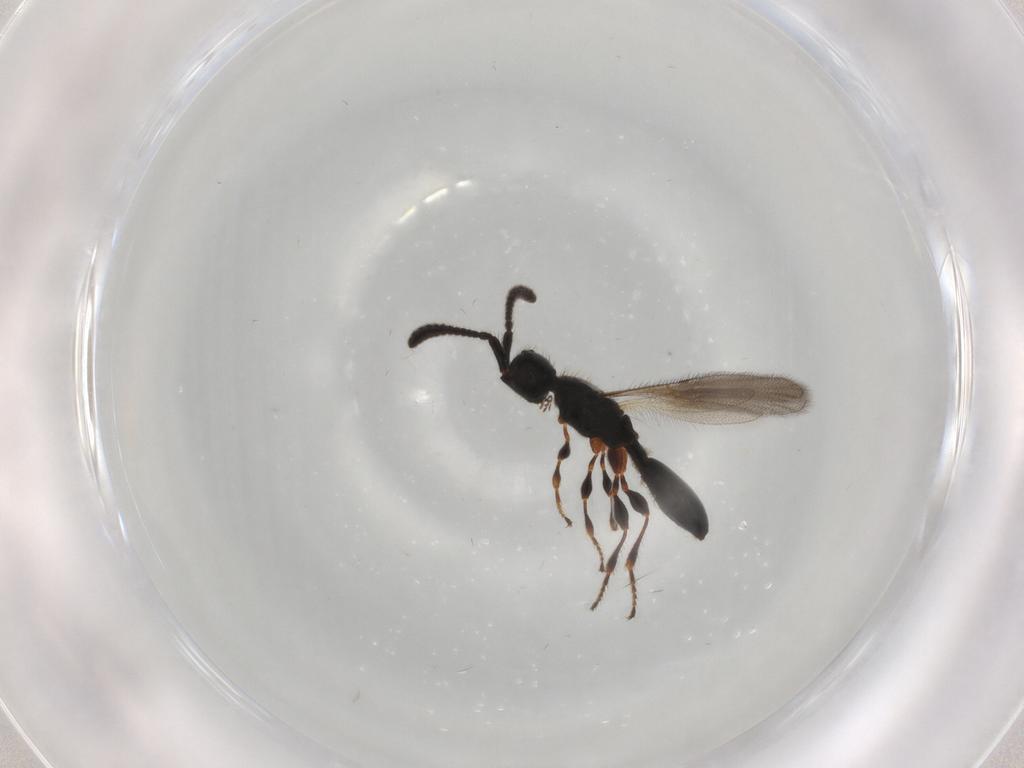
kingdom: Animalia
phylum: Arthropoda
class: Insecta
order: Hymenoptera
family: Diapriidae
